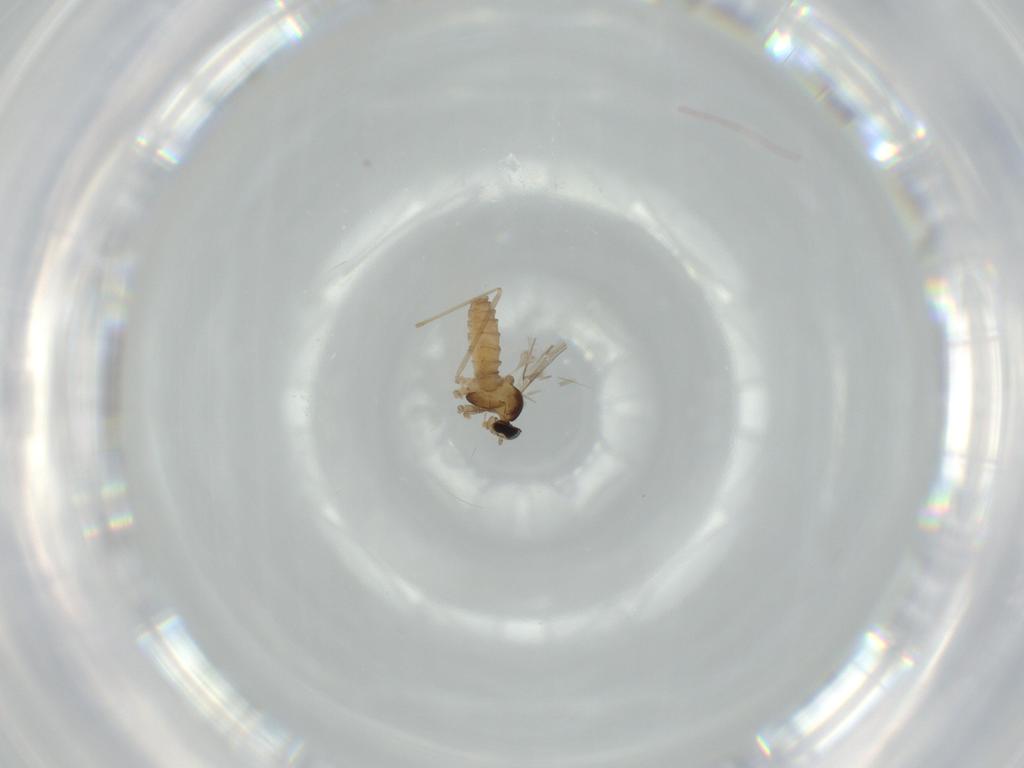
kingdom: Animalia
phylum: Arthropoda
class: Insecta
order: Diptera
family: Cecidomyiidae
